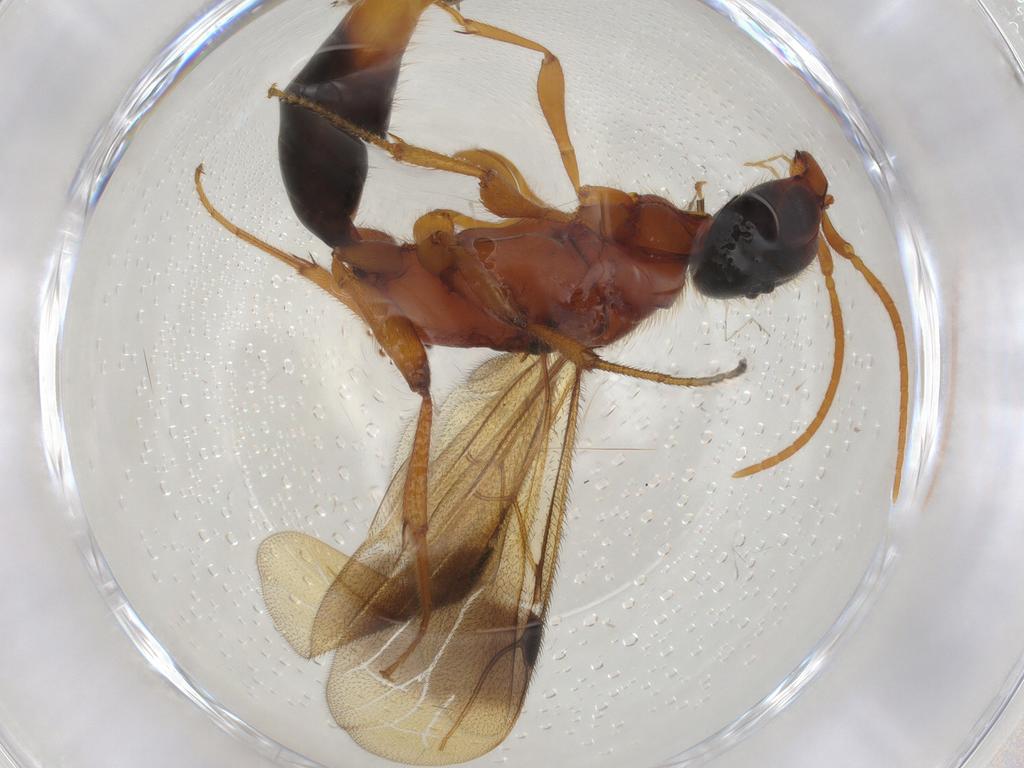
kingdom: Animalia
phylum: Arthropoda
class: Insecta
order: Hymenoptera
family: Bethylidae
